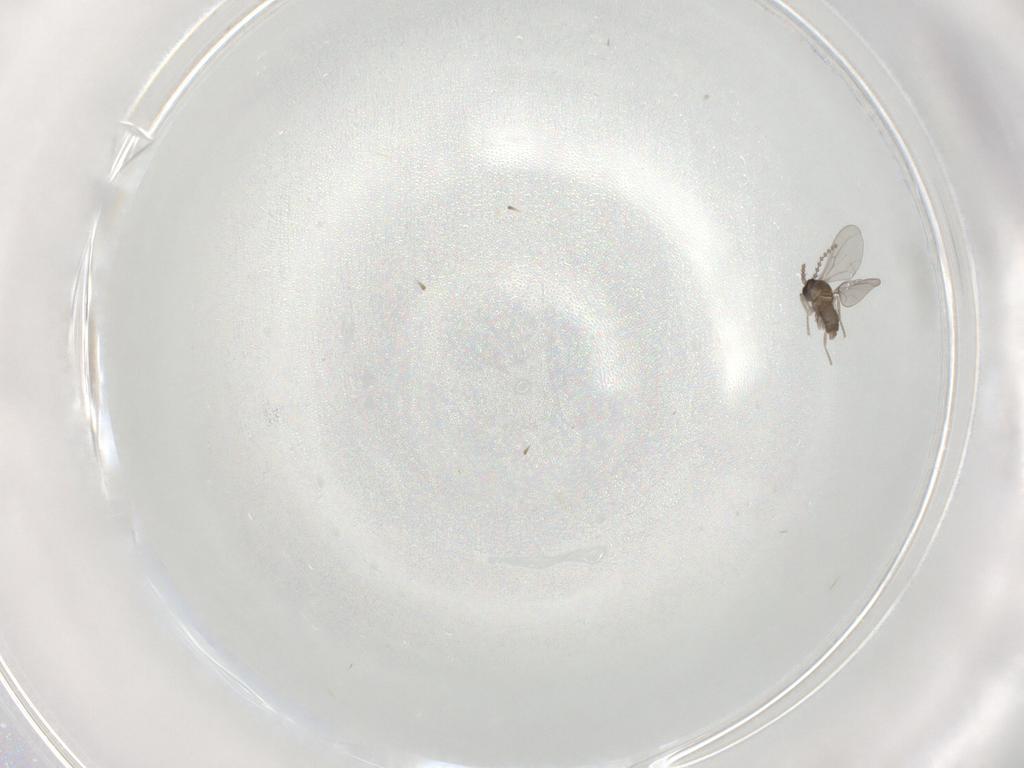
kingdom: Animalia
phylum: Arthropoda
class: Insecta
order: Diptera
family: Cecidomyiidae
